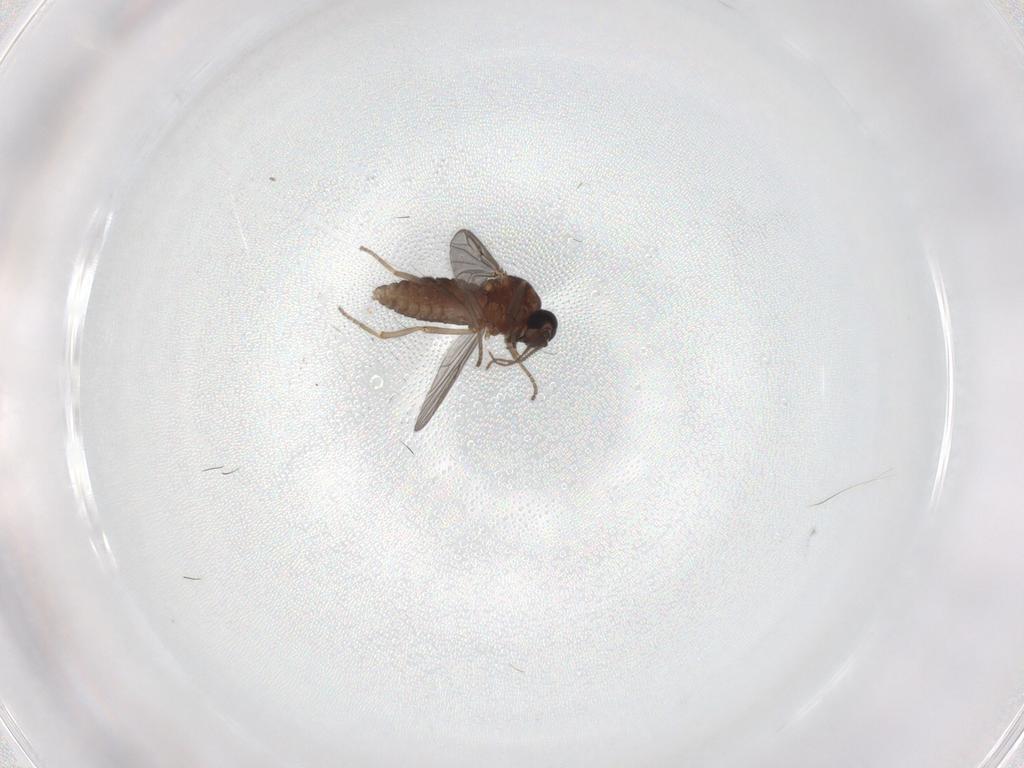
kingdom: Animalia
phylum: Arthropoda
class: Insecta
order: Diptera
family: Ceratopogonidae
